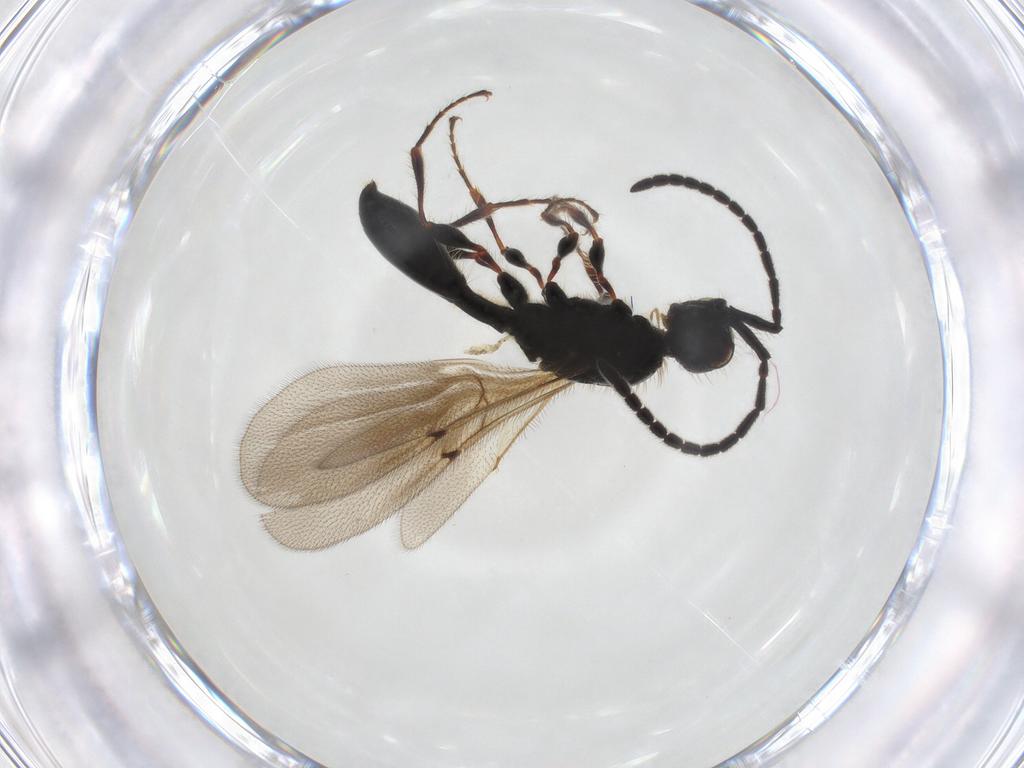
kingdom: Animalia
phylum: Arthropoda
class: Insecta
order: Hymenoptera
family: Diapriidae
